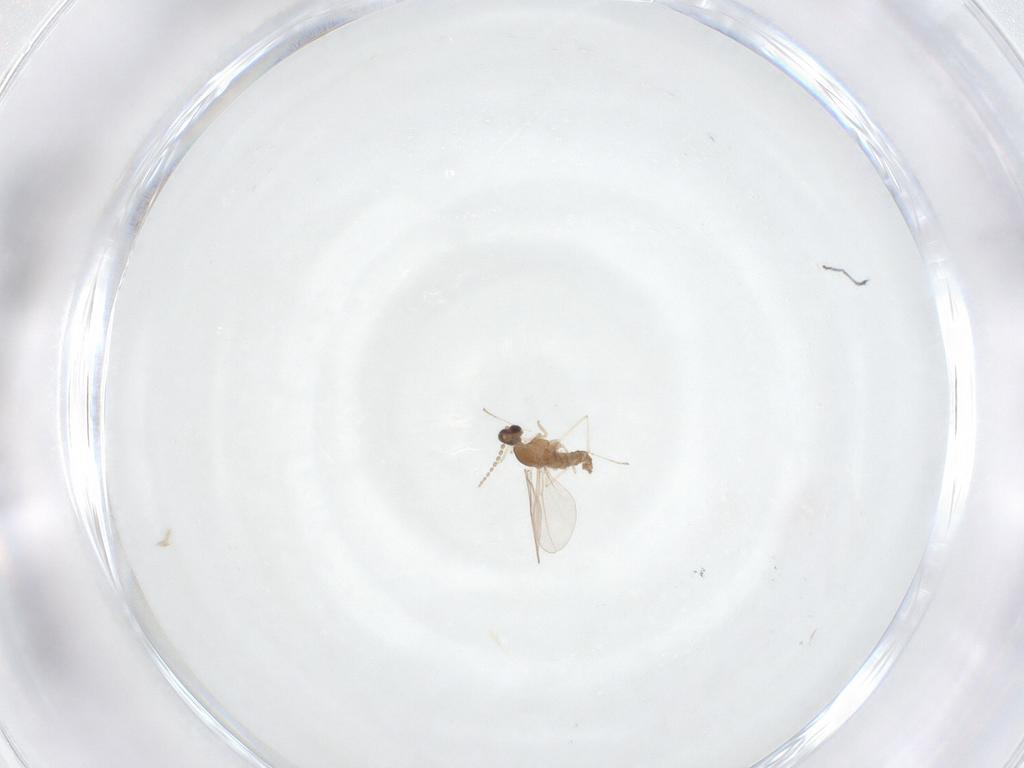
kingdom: Animalia
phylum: Arthropoda
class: Insecta
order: Diptera
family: Cecidomyiidae
